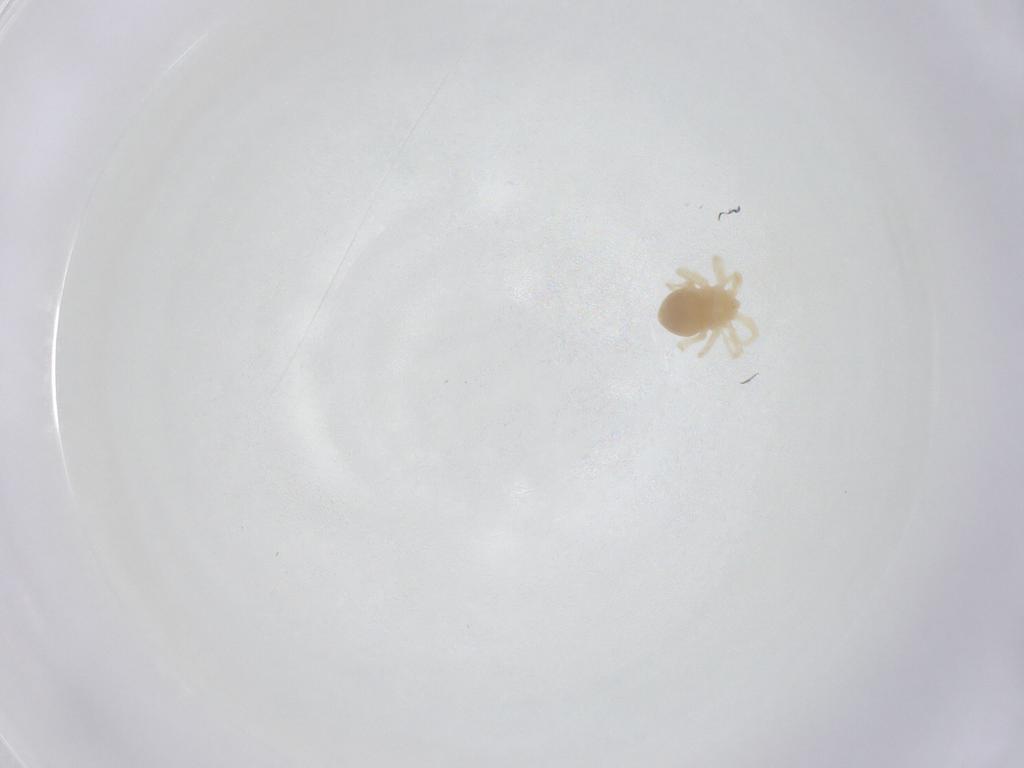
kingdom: Animalia
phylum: Arthropoda
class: Arachnida
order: Trombidiformes
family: Anystidae
